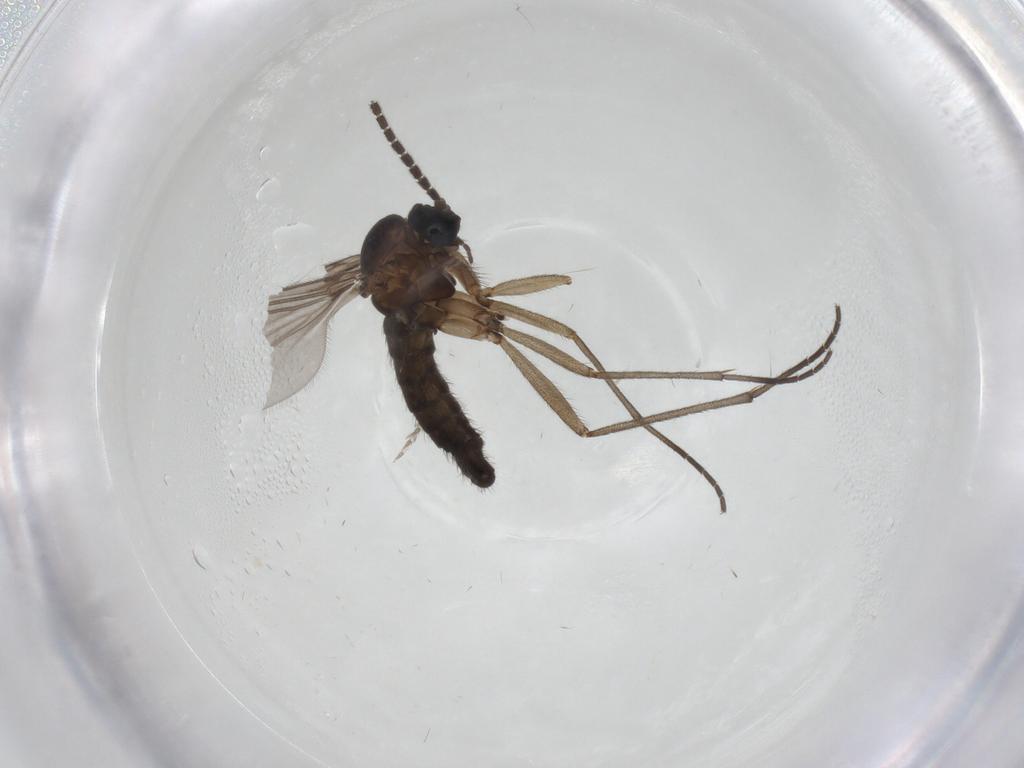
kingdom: Animalia
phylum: Arthropoda
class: Insecta
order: Diptera
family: Sciaridae
